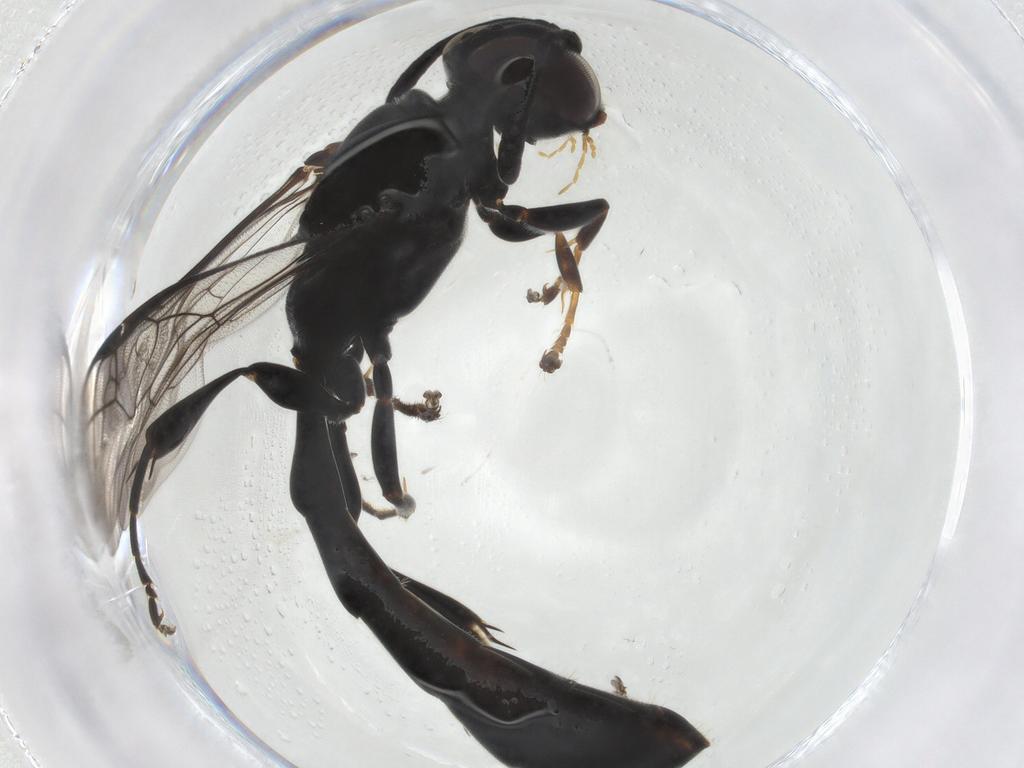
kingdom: Animalia
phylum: Arthropoda
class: Insecta
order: Hymenoptera
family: Crabronidae
